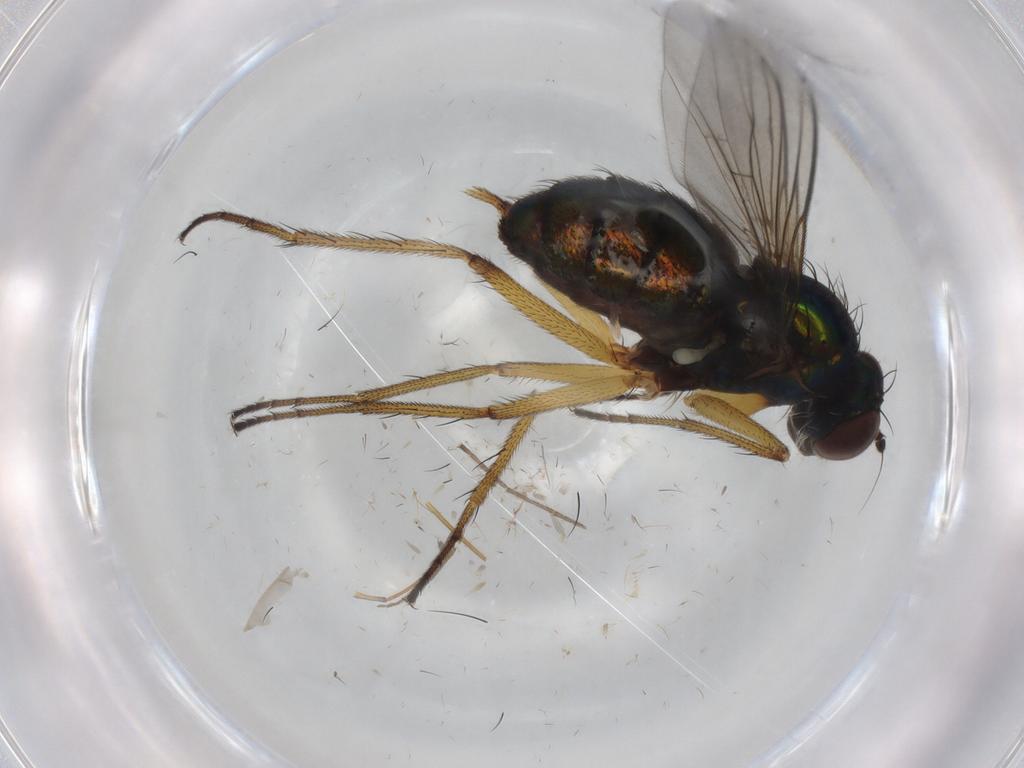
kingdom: Animalia
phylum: Arthropoda
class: Insecta
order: Diptera
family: Limoniidae
